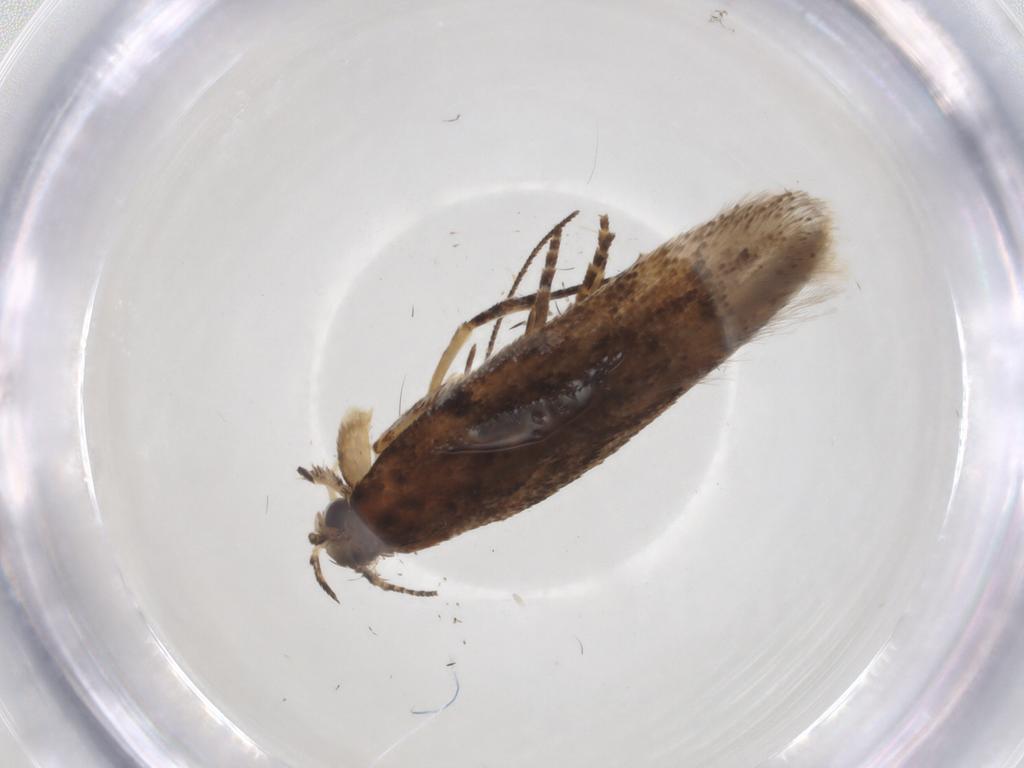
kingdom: Animalia
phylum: Arthropoda
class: Insecta
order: Lepidoptera
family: Gelechiidae
